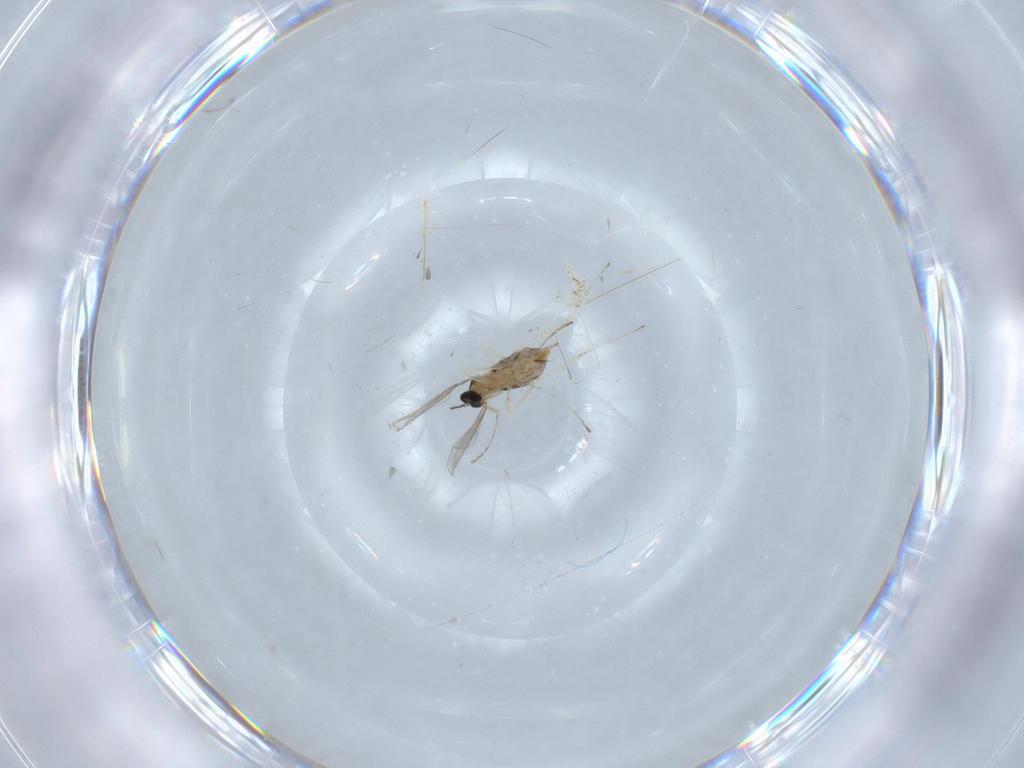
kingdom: Animalia
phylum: Arthropoda
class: Insecta
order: Diptera
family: Cecidomyiidae
